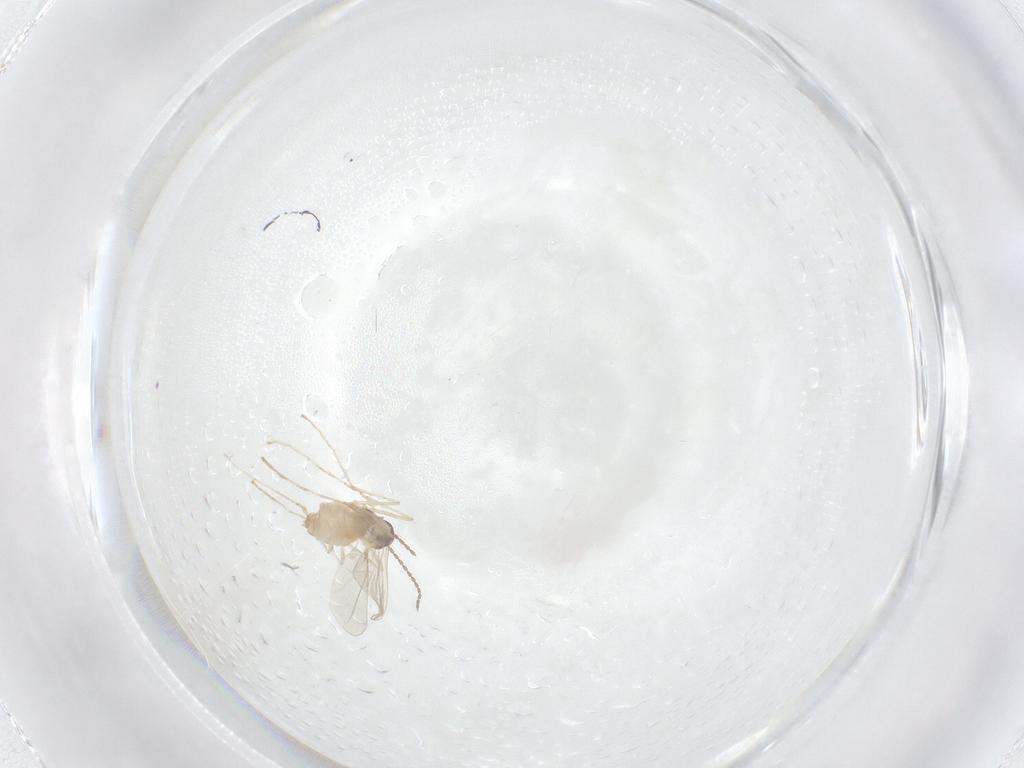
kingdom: Animalia
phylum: Arthropoda
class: Insecta
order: Diptera
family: Cecidomyiidae
